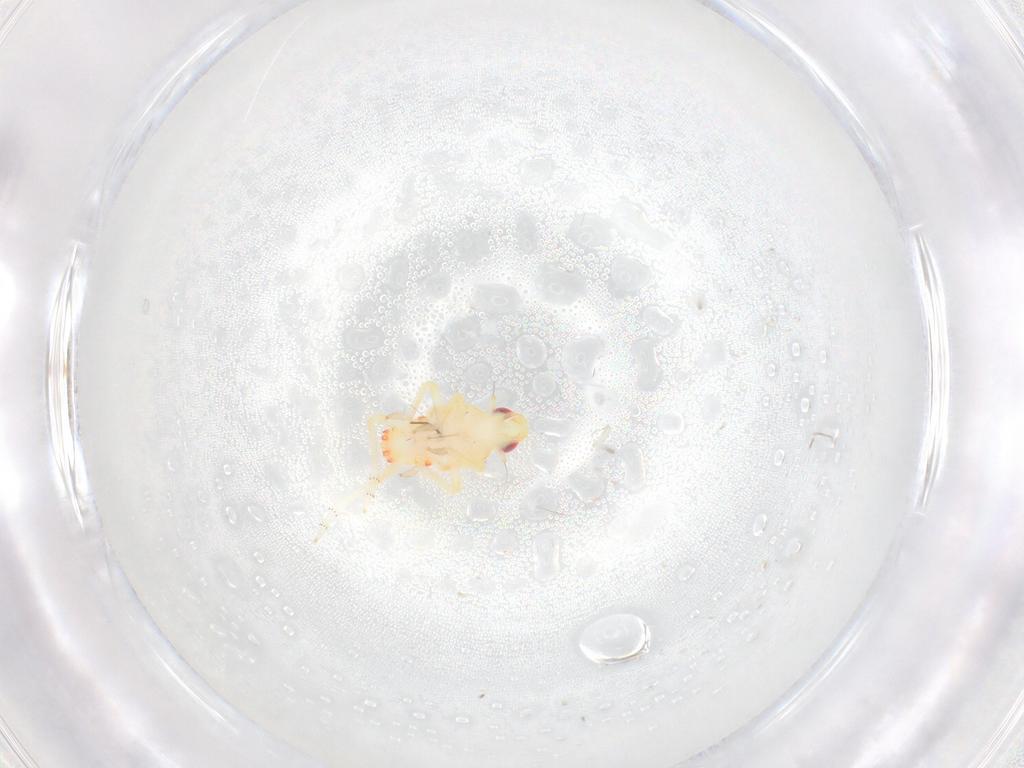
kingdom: Animalia
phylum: Arthropoda
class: Insecta
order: Hemiptera
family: Tropiduchidae
